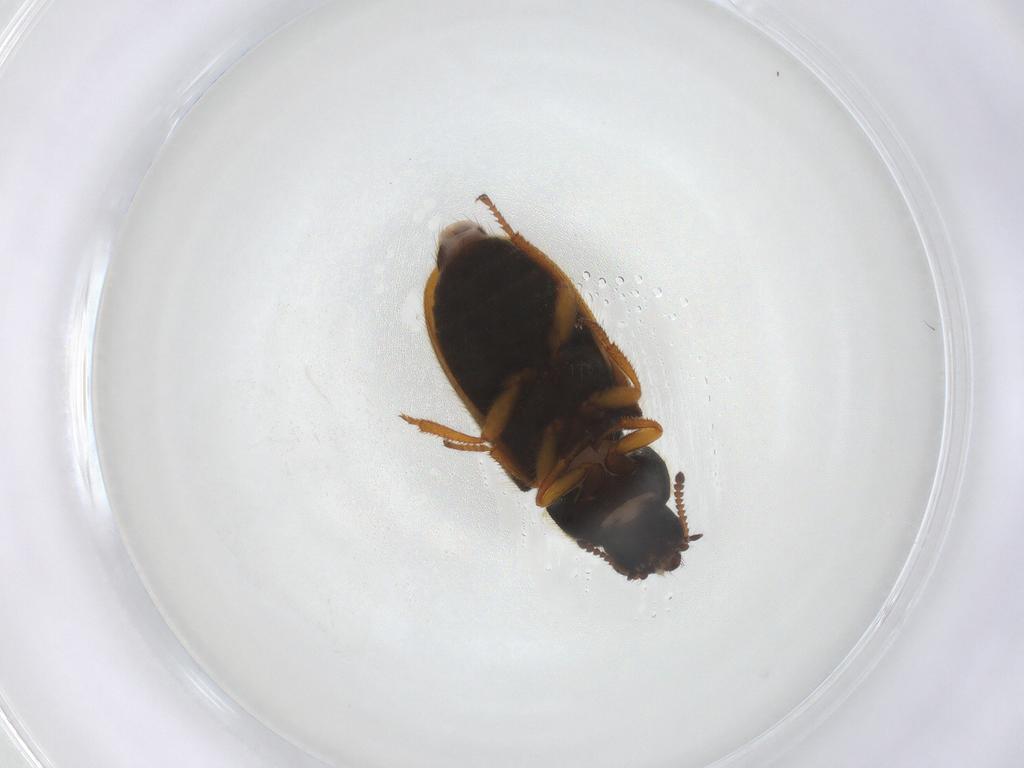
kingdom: Animalia
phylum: Arthropoda
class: Insecta
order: Coleoptera
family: Melyridae
